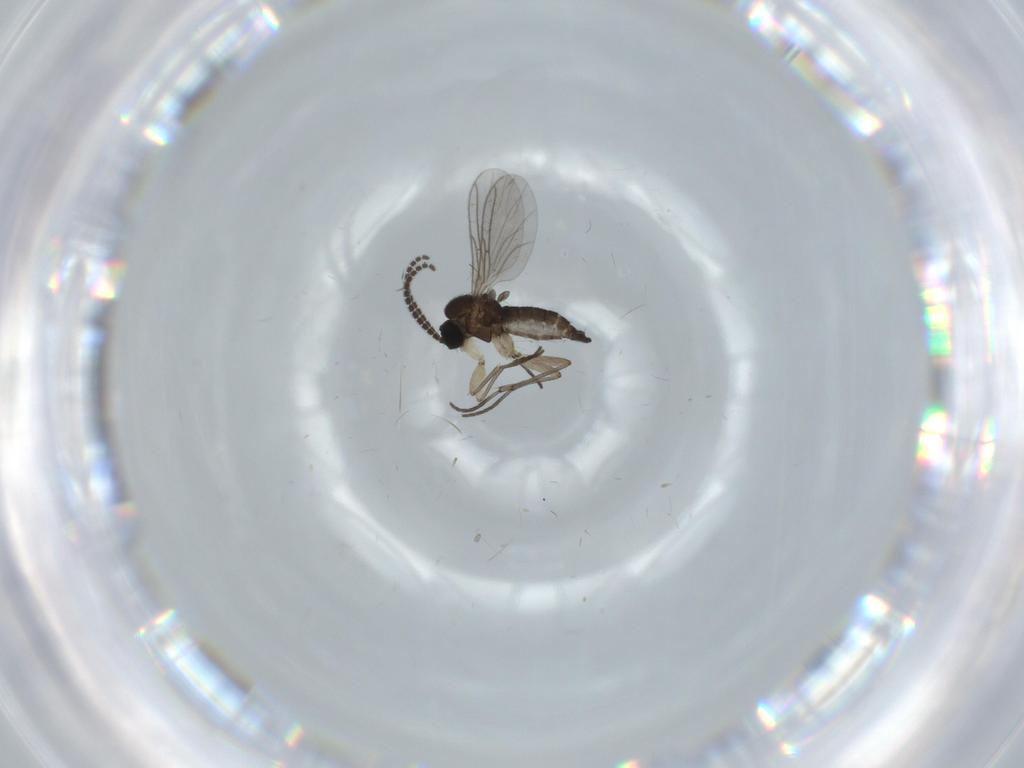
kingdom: Animalia
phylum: Arthropoda
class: Insecta
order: Diptera
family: Sciaridae
